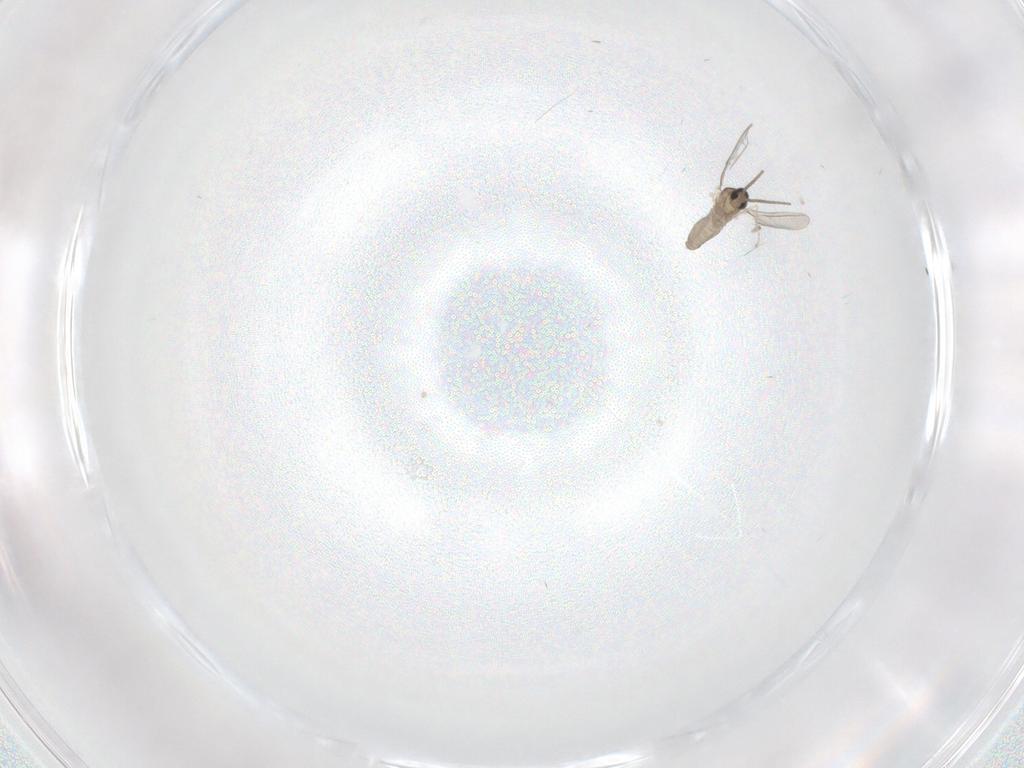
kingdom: Animalia
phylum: Arthropoda
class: Insecta
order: Diptera
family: Cecidomyiidae
